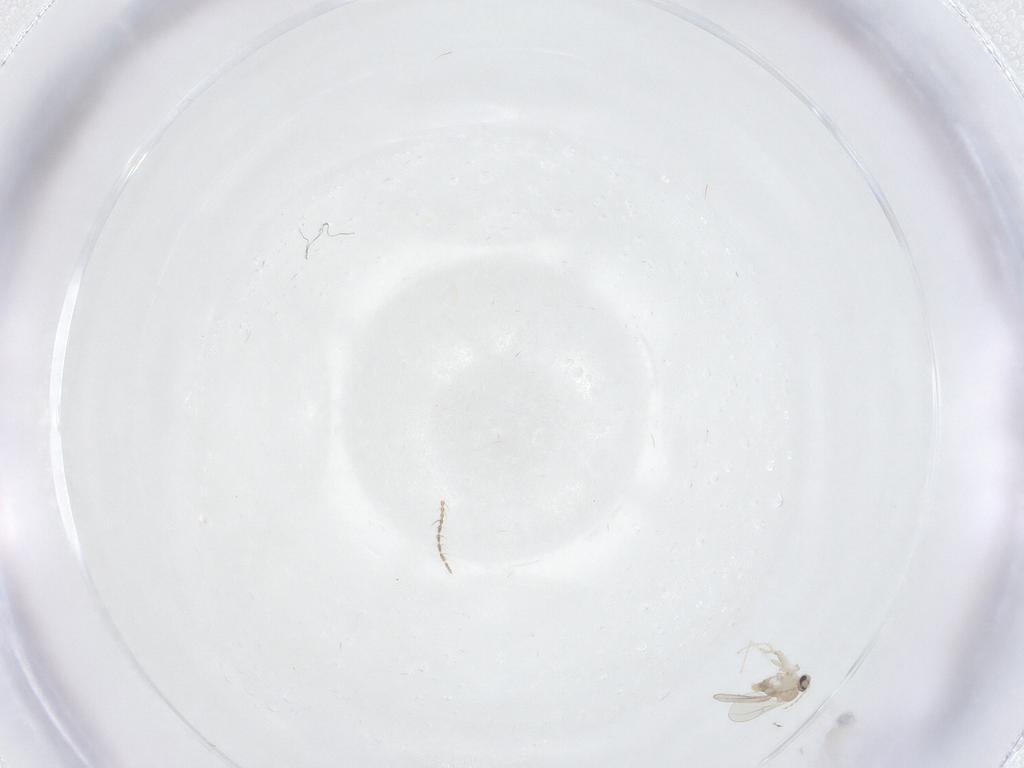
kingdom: Animalia
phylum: Arthropoda
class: Insecta
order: Diptera
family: Cecidomyiidae
